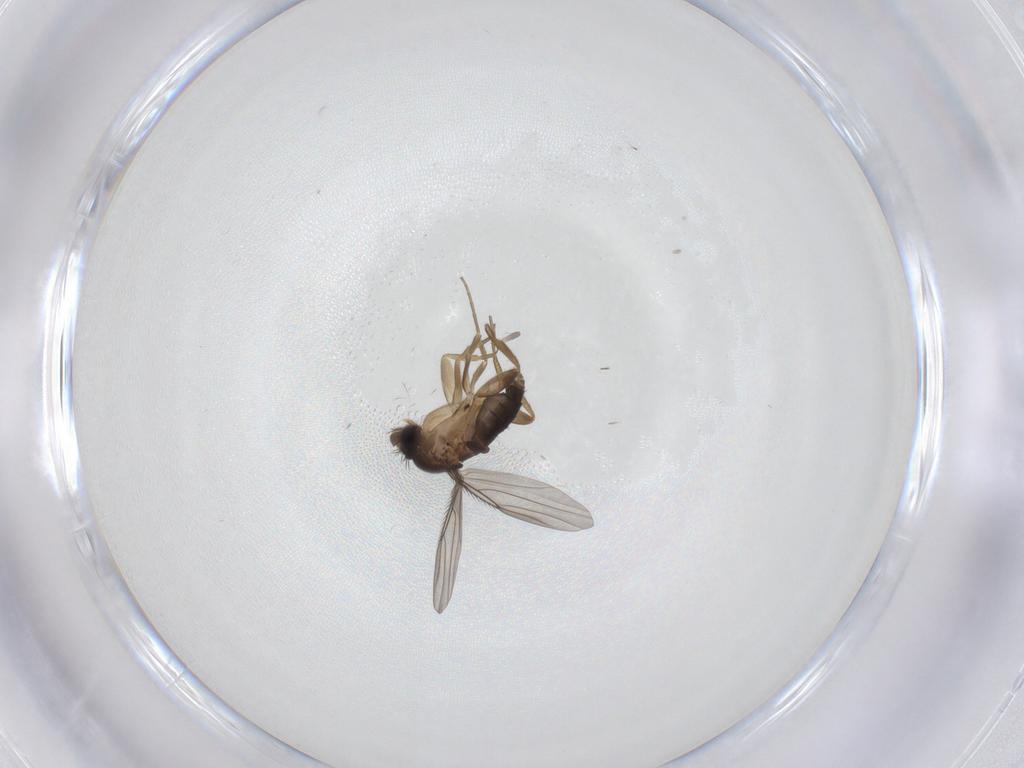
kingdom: Animalia
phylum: Arthropoda
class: Insecta
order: Diptera
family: Phoridae
